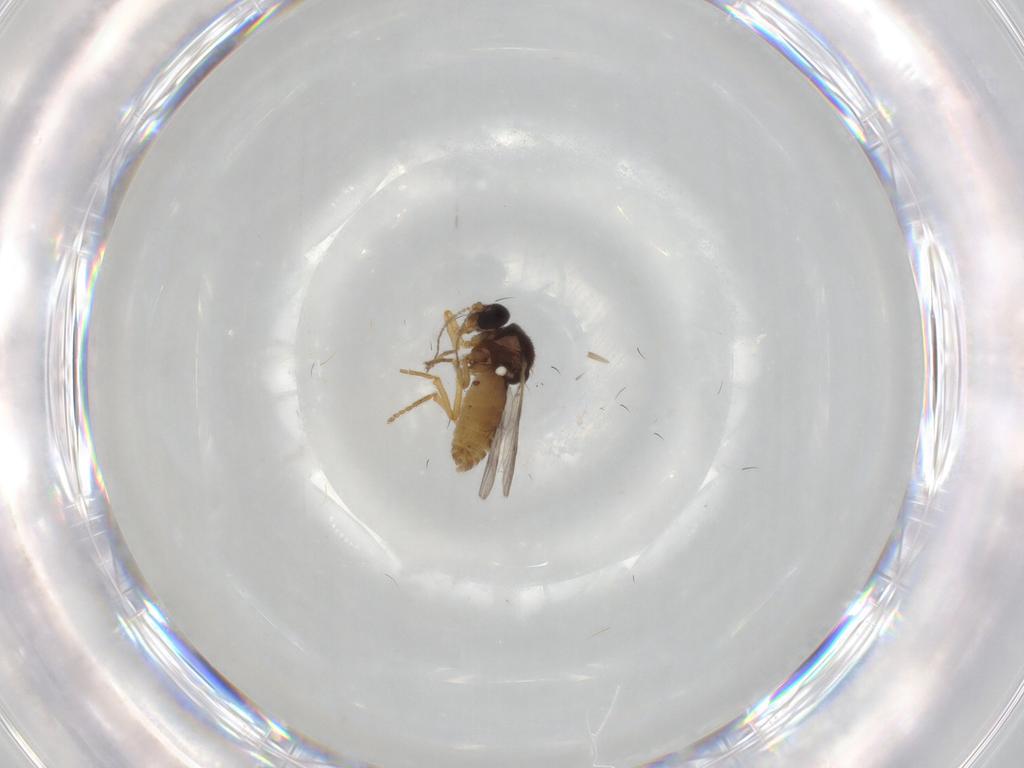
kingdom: Animalia
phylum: Arthropoda
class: Insecta
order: Diptera
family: Ceratopogonidae
